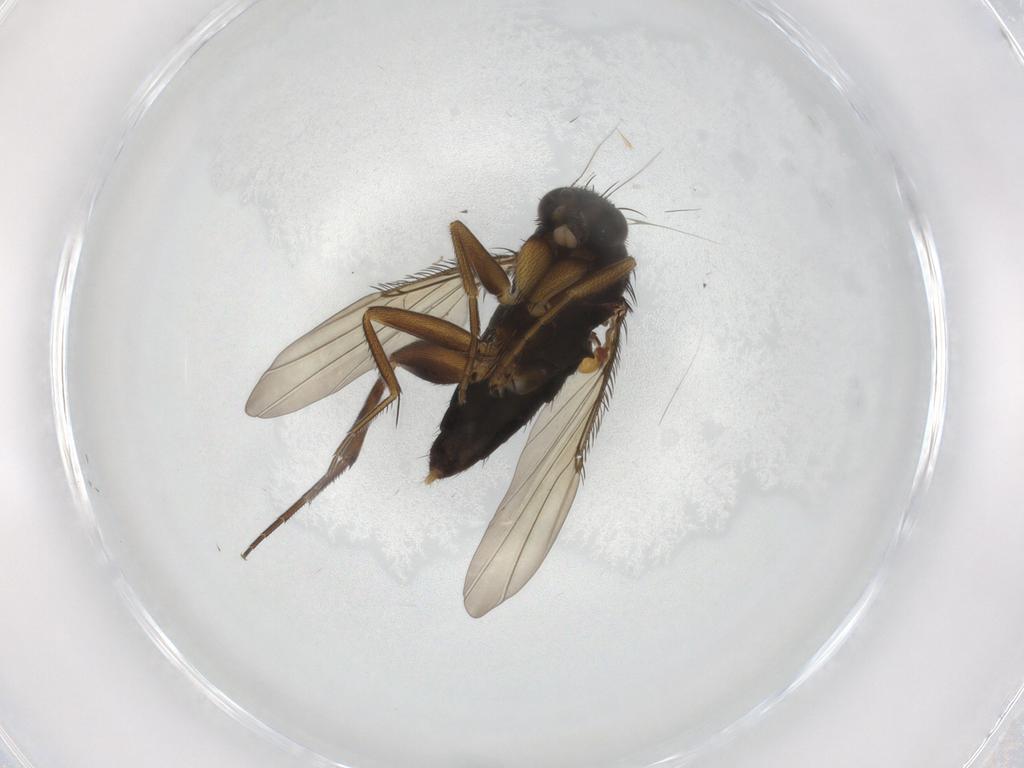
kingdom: Animalia
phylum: Arthropoda
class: Insecta
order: Diptera
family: Phoridae
